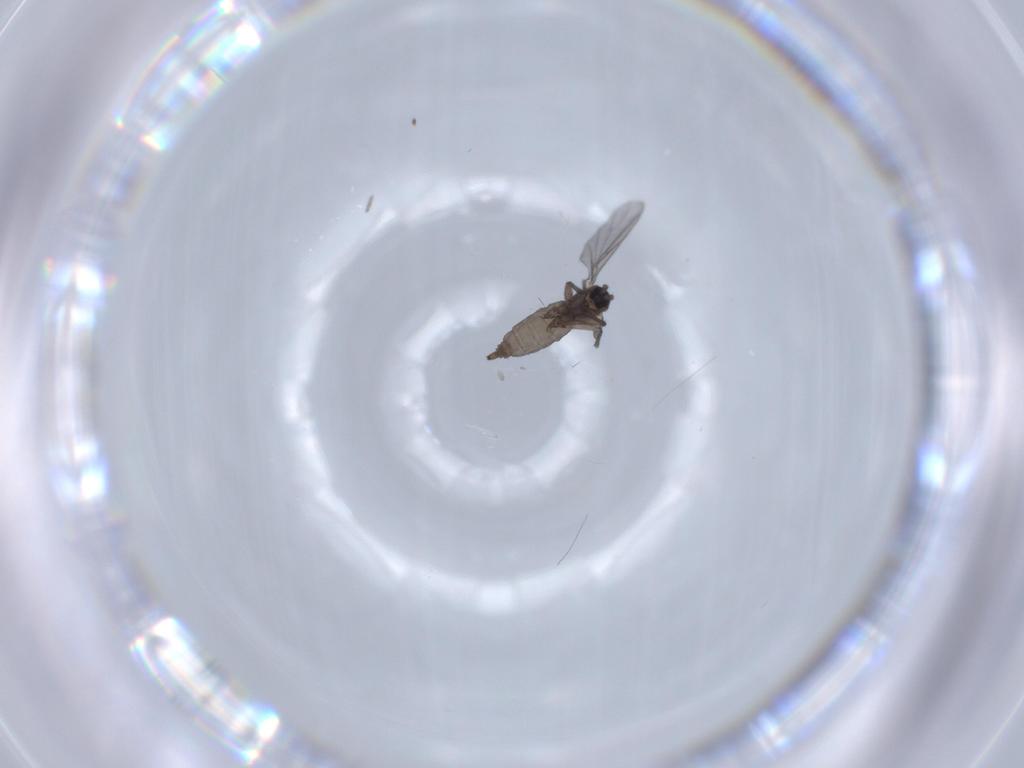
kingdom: Animalia
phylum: Arthropoda
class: Insecta
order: Diptera
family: Sciaridae
